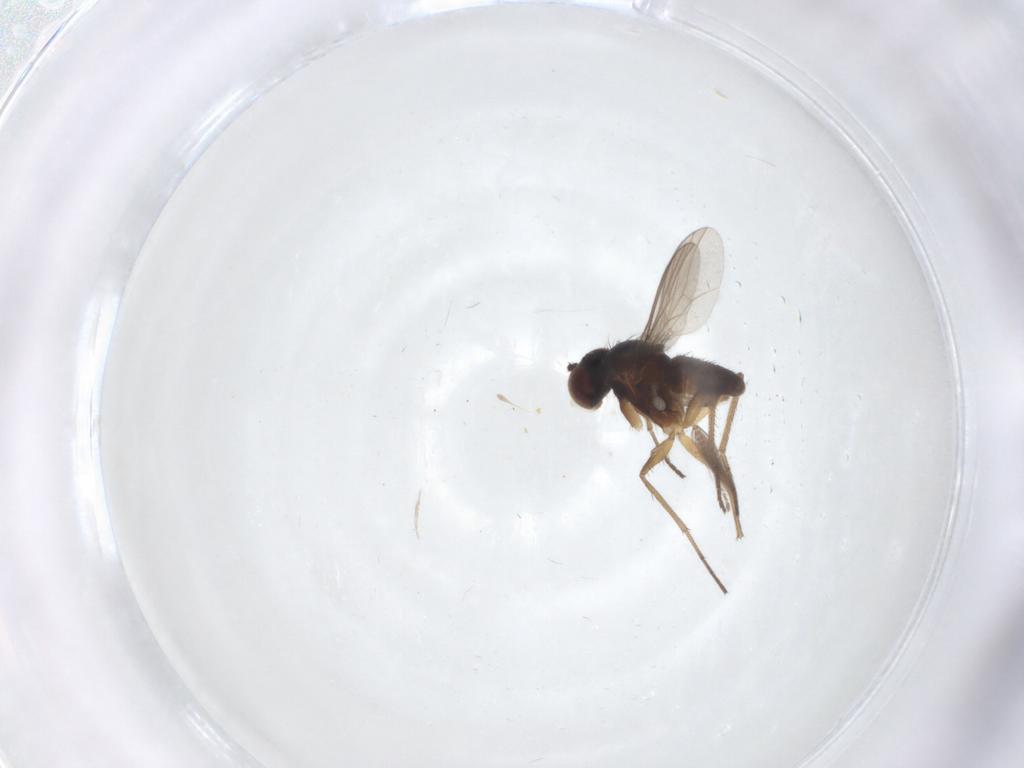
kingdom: Animalia
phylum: Arthropoda
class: Insecta
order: Diptera
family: Dolichopodidae
